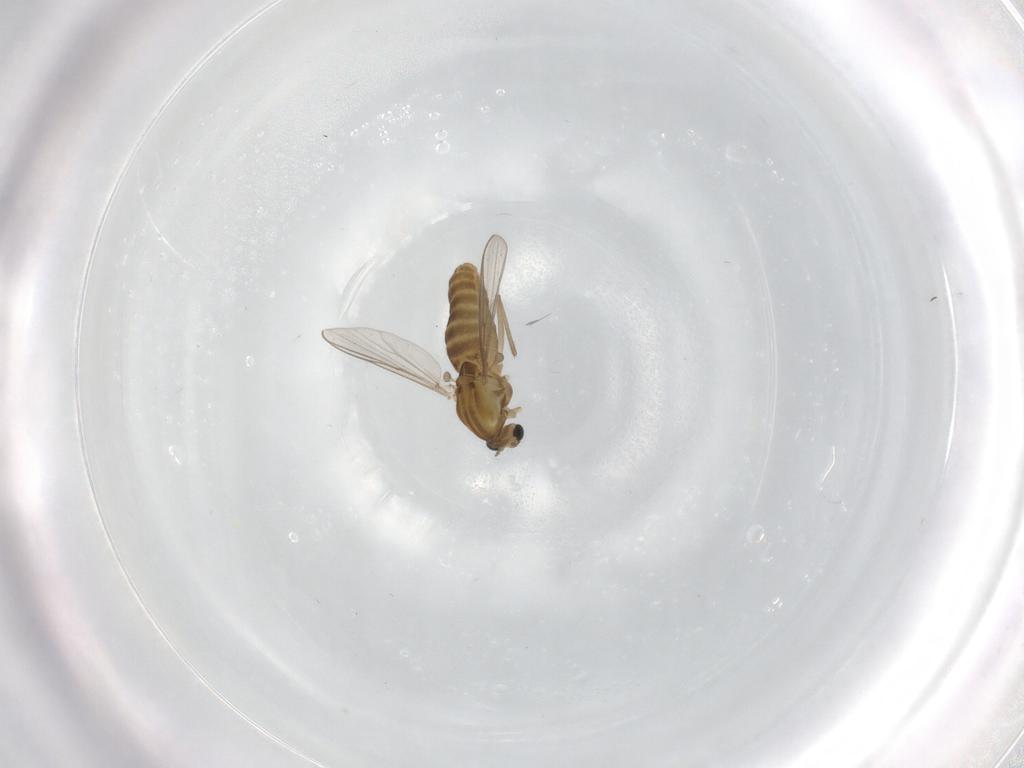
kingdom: Animalia
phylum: Arthropoda
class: Insecta
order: Diptera
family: Chironomidae
